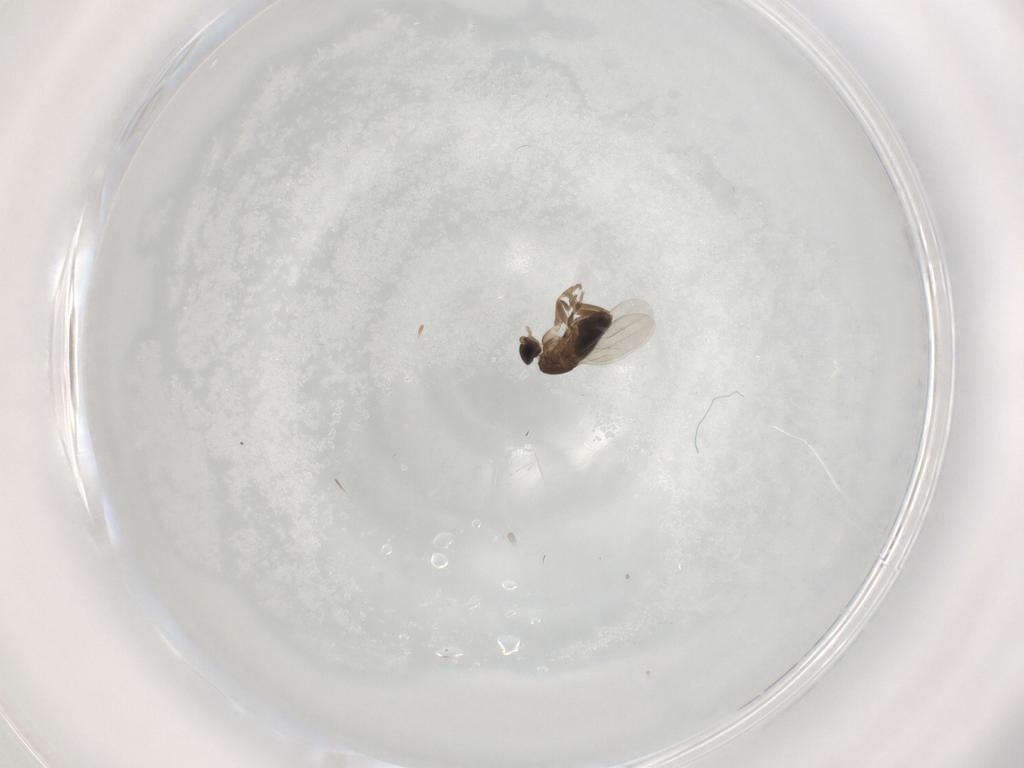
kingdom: Animalia
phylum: Arthropoda
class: Insecta
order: Diptera
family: Phoridae
